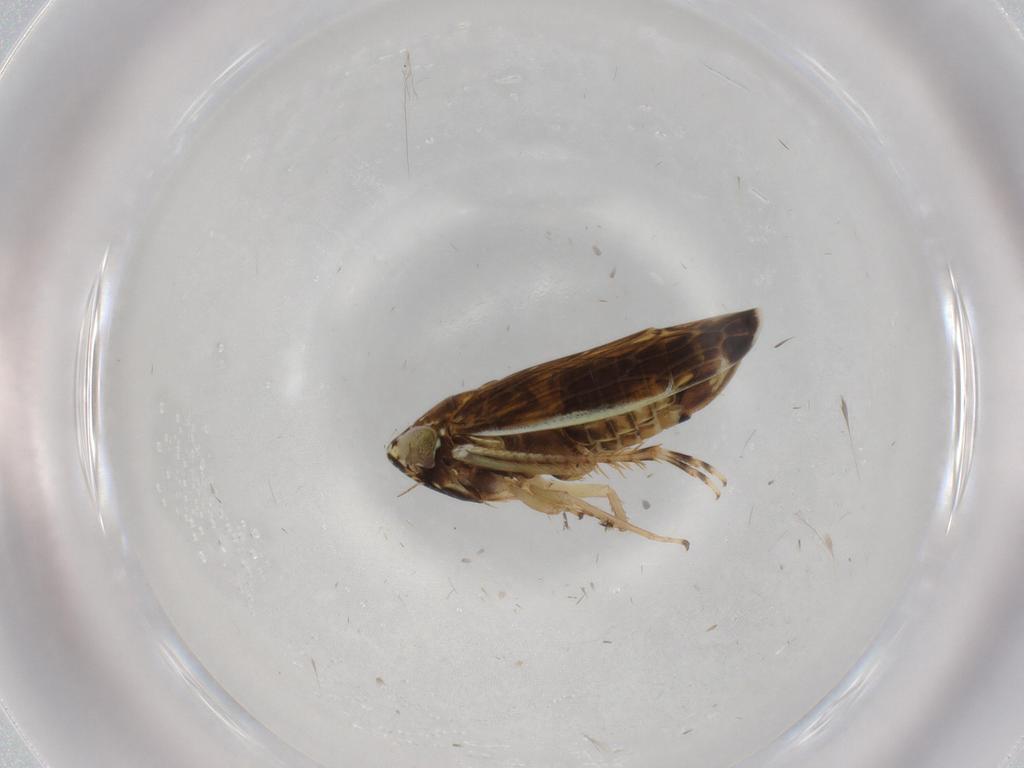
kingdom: Animalia
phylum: Arthropoda
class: Insecta
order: Hemiptera
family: Cicadellidae
